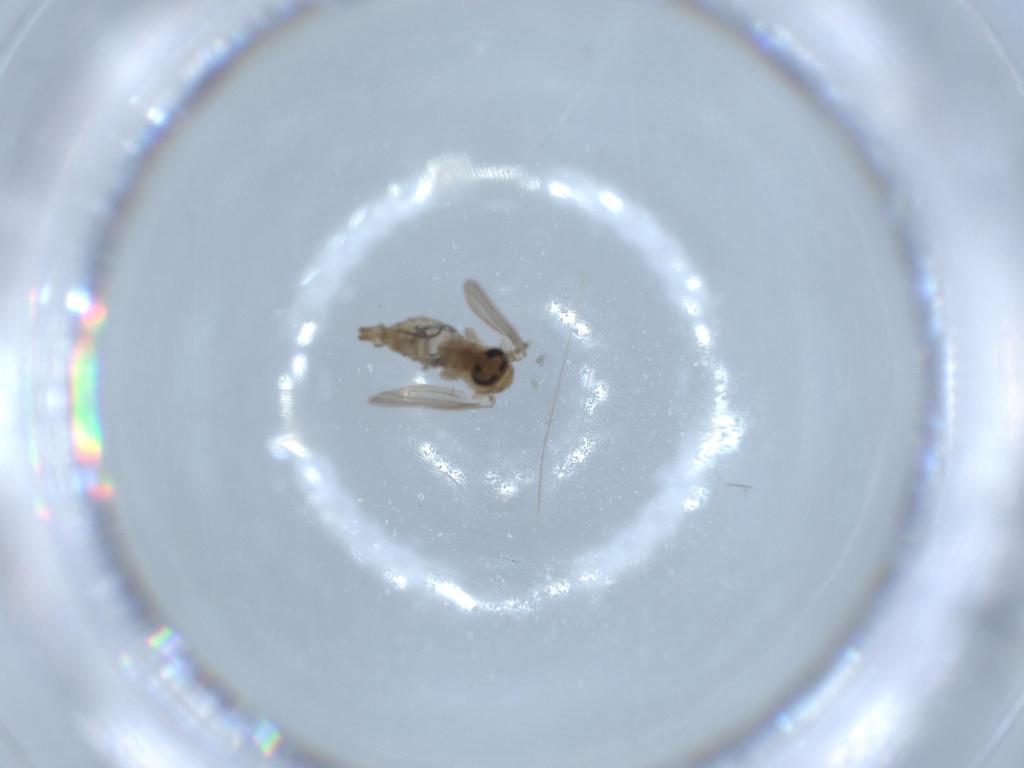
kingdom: Animalia
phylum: Arthropoda
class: Insecta
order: Diptera
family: Psychodidae
